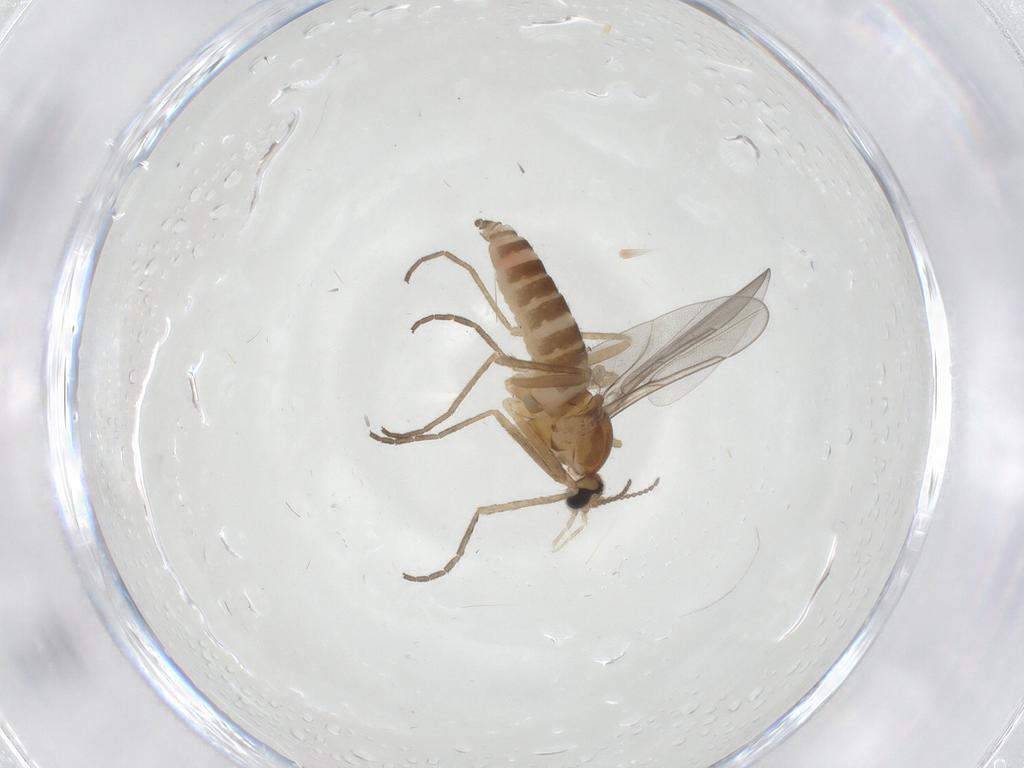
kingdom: Animalia
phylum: Arthropoda
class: Insecta
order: Diptera
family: Cecidomyiidae
